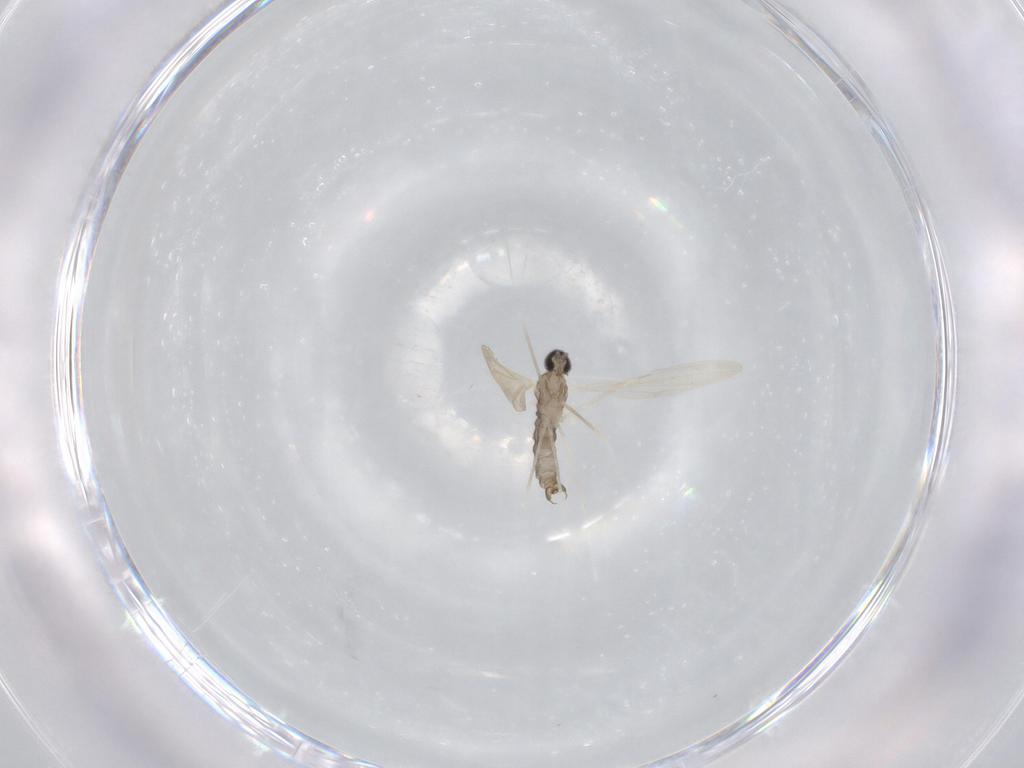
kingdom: Animalia
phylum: Arthropoda
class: Insecta
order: Diptera
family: Cecidomyiidae
